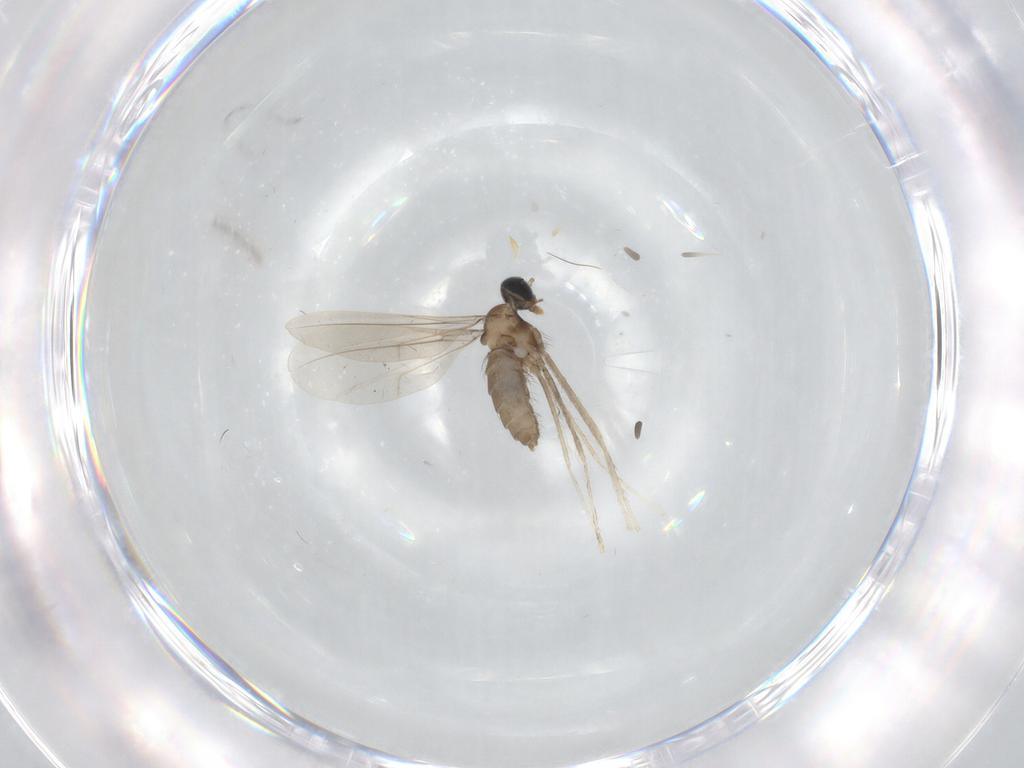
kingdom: Animalia
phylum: Arthropoda
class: Insecta
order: Diptera
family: Cecidomyiidae
